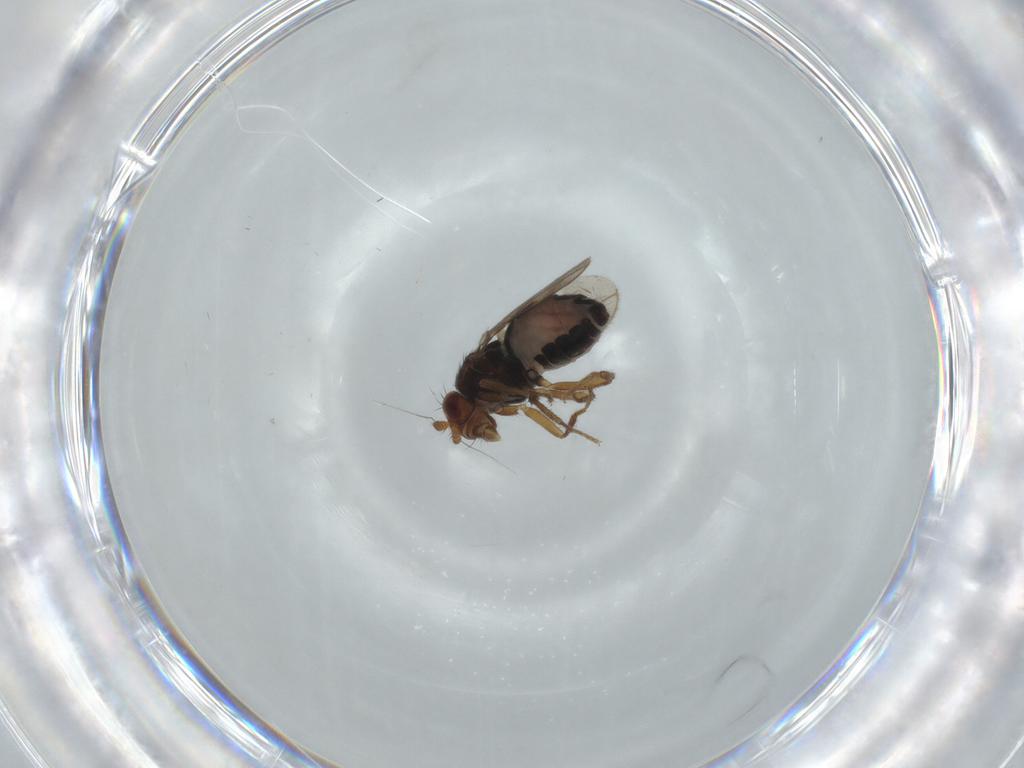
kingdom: Animalia
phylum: Arthropoda
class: Insecta
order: Diptera
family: Sphaeroceridae
